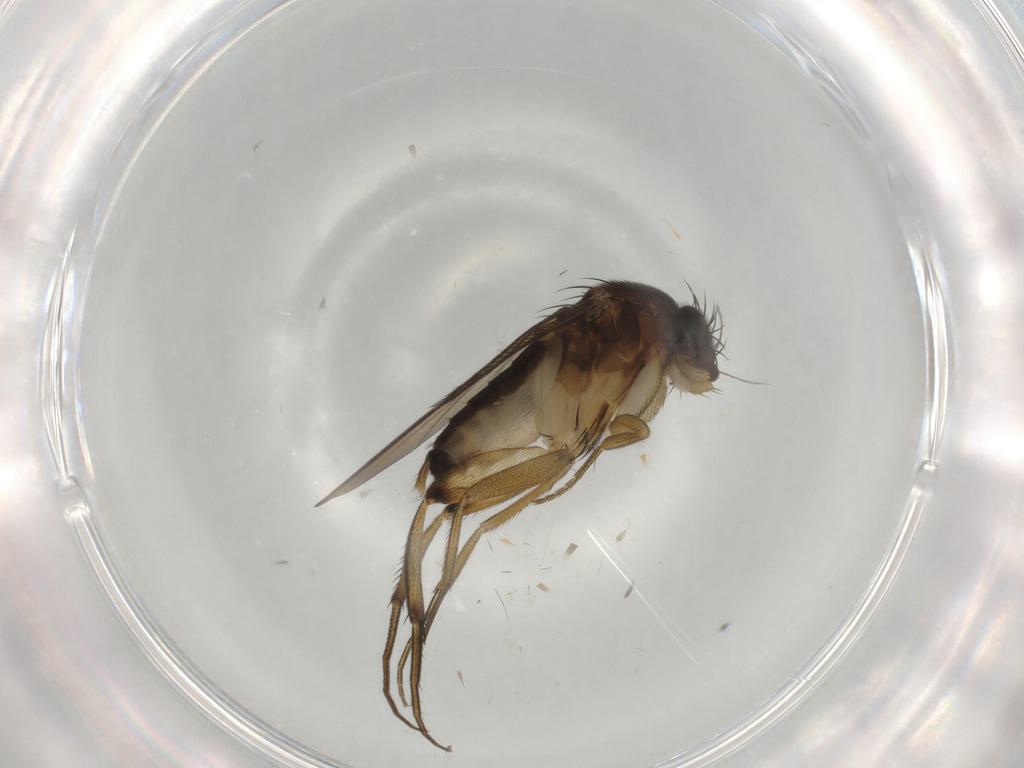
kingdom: Animalia
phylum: Arthropoda
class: Insecta
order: Diptera
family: Phoridae
